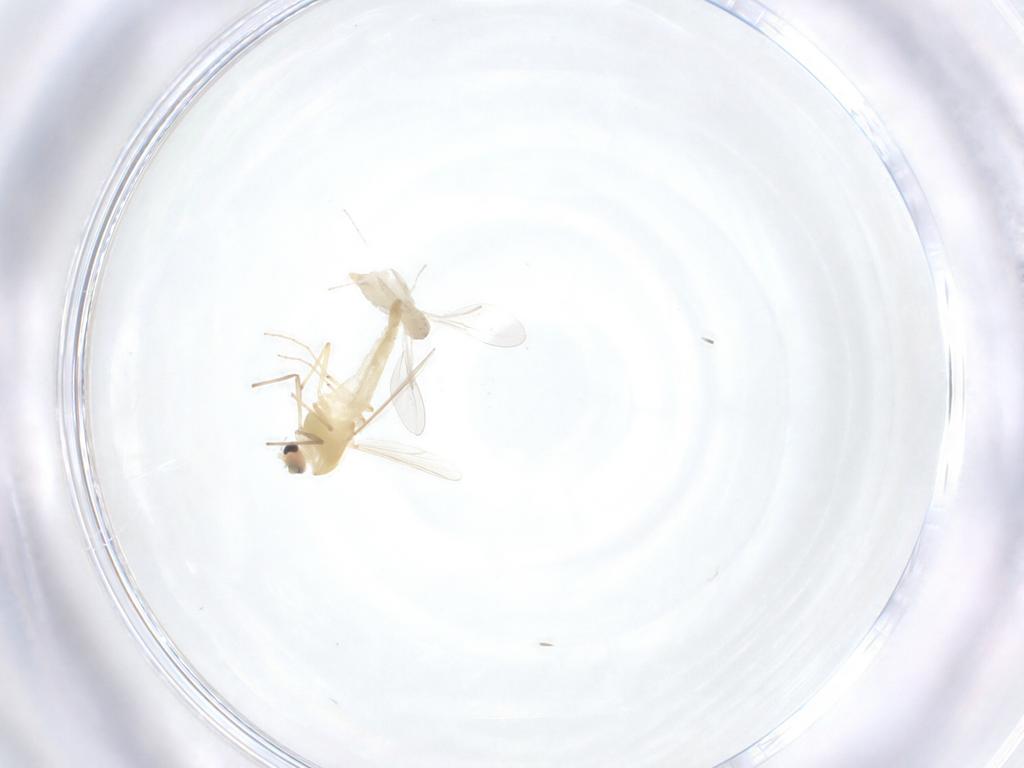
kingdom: Animalia
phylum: Arthropoda
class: Insecta
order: Diptera
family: Chironomidae
